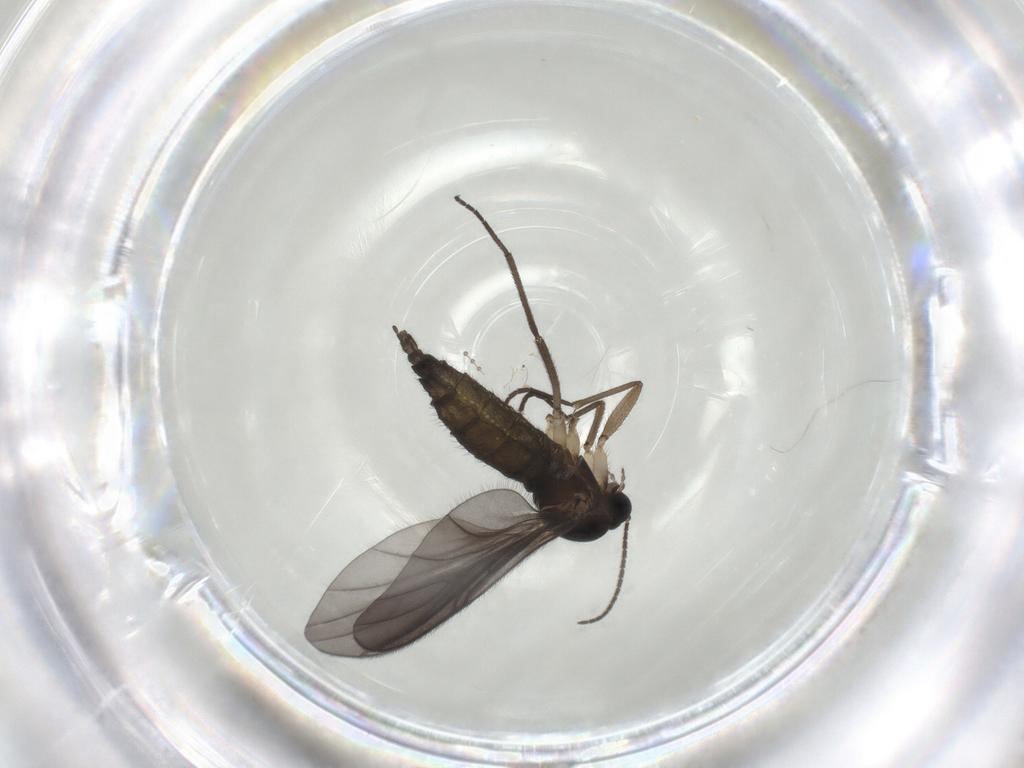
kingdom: Animalia
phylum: Arthropoda
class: Insecta
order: Diptera
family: Sciaridae
